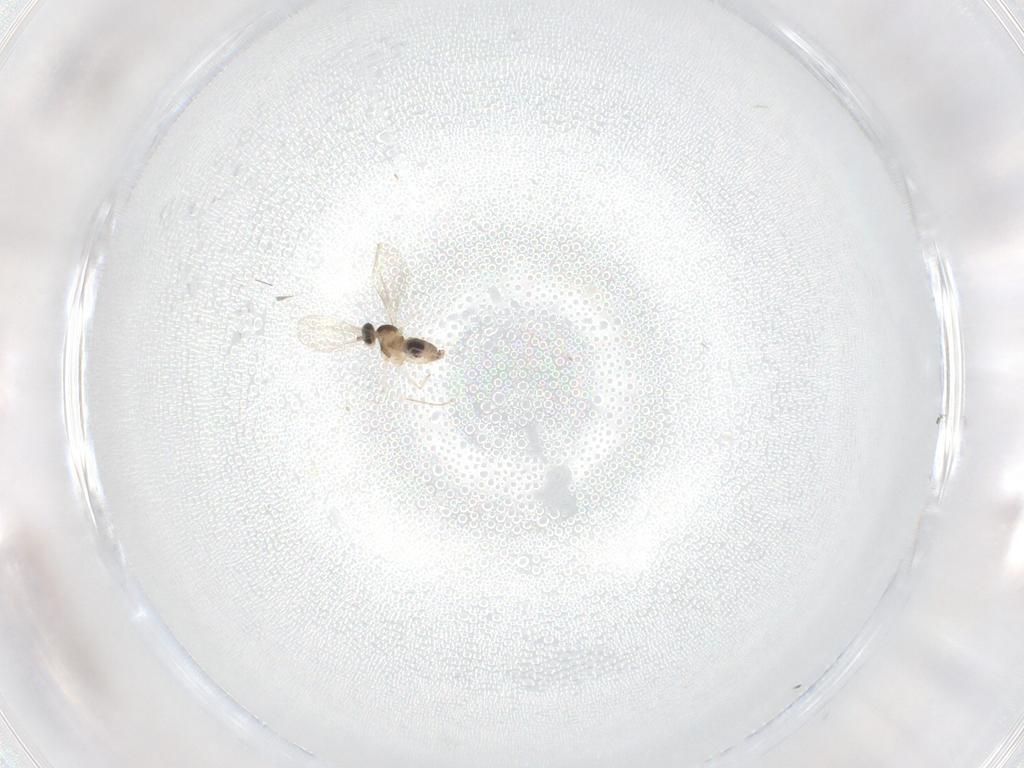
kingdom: Animalia
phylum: Arthropoda
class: Insecta
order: Diptera
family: Cecidomyiidae
